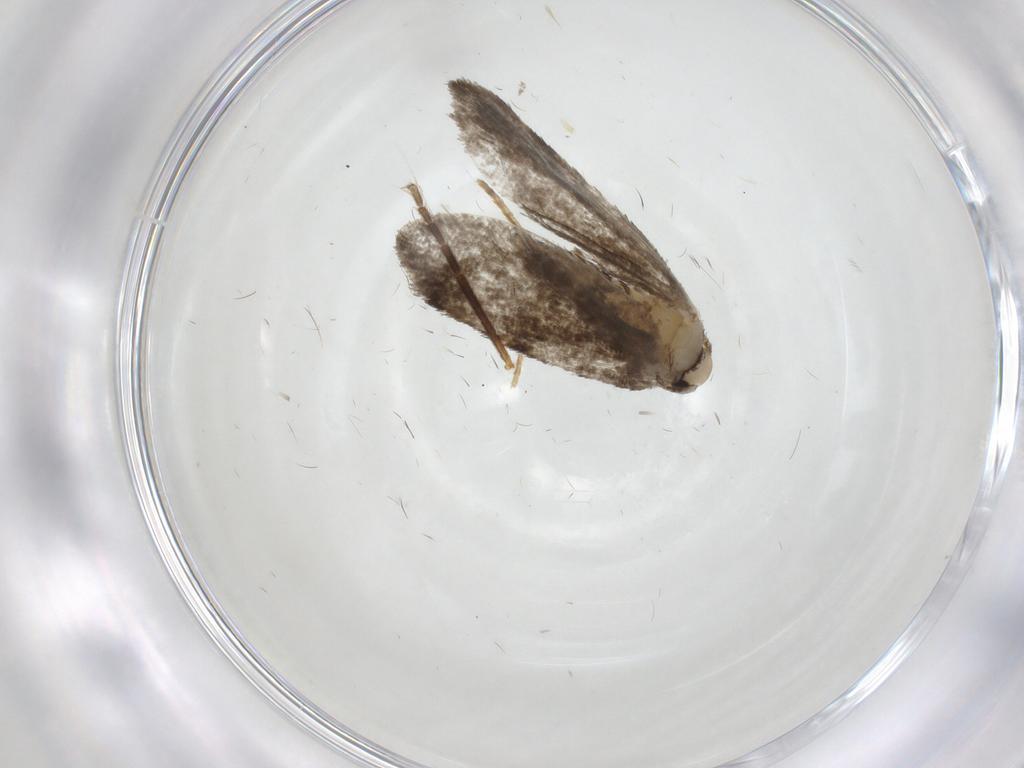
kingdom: Animalia
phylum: Arthropoda
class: Insecta
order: Lepidoptera
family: Psychidae
